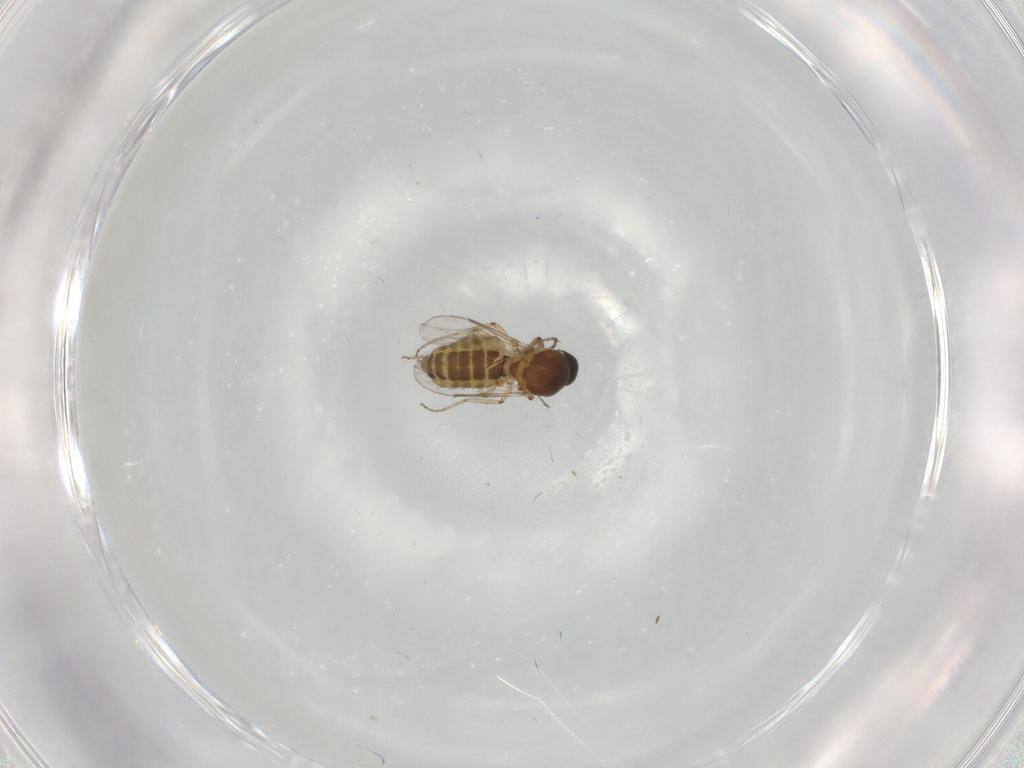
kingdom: Animalia
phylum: Arthropoda
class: Insecta
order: Diptera
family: Ceratopogonidae
